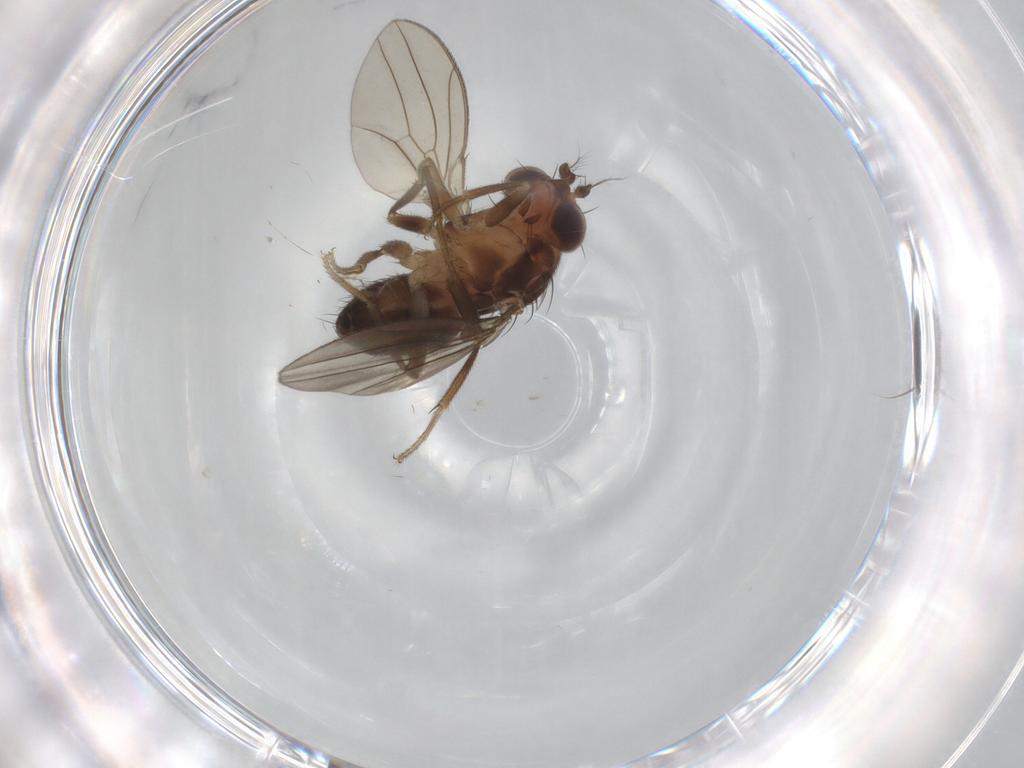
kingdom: Animalia
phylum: Arthropoda
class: Insecta
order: Diptera
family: Drosophilidae
